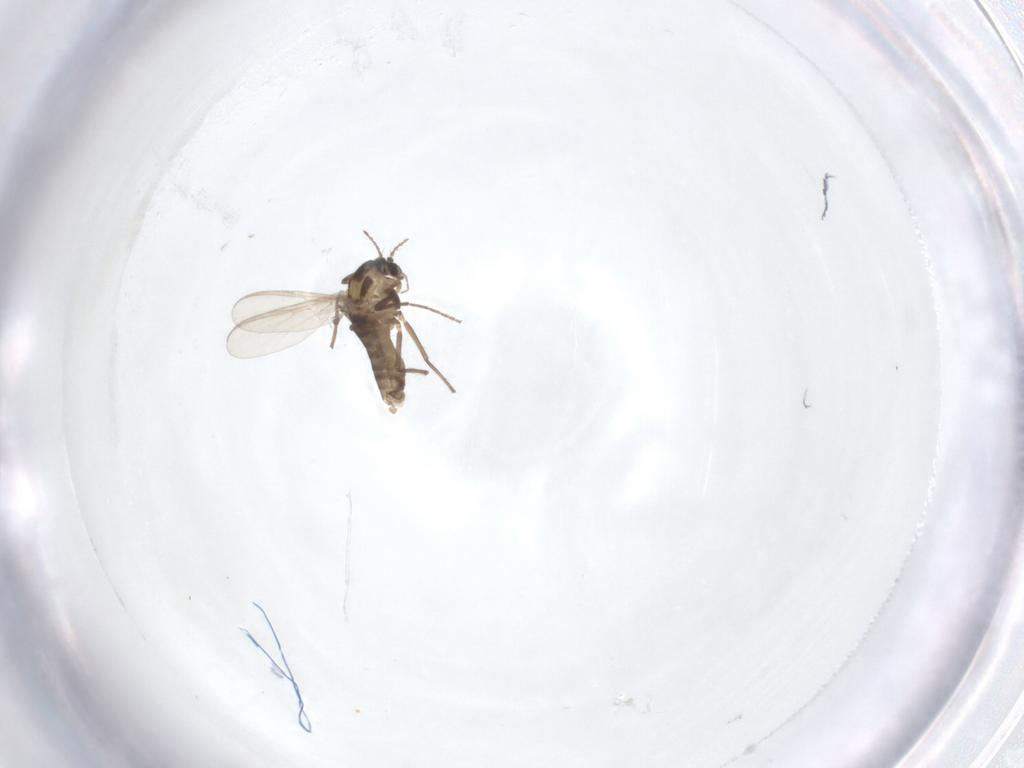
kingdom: Animalia
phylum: Arthropoda
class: Insecta
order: Diptera
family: Chironomidae
